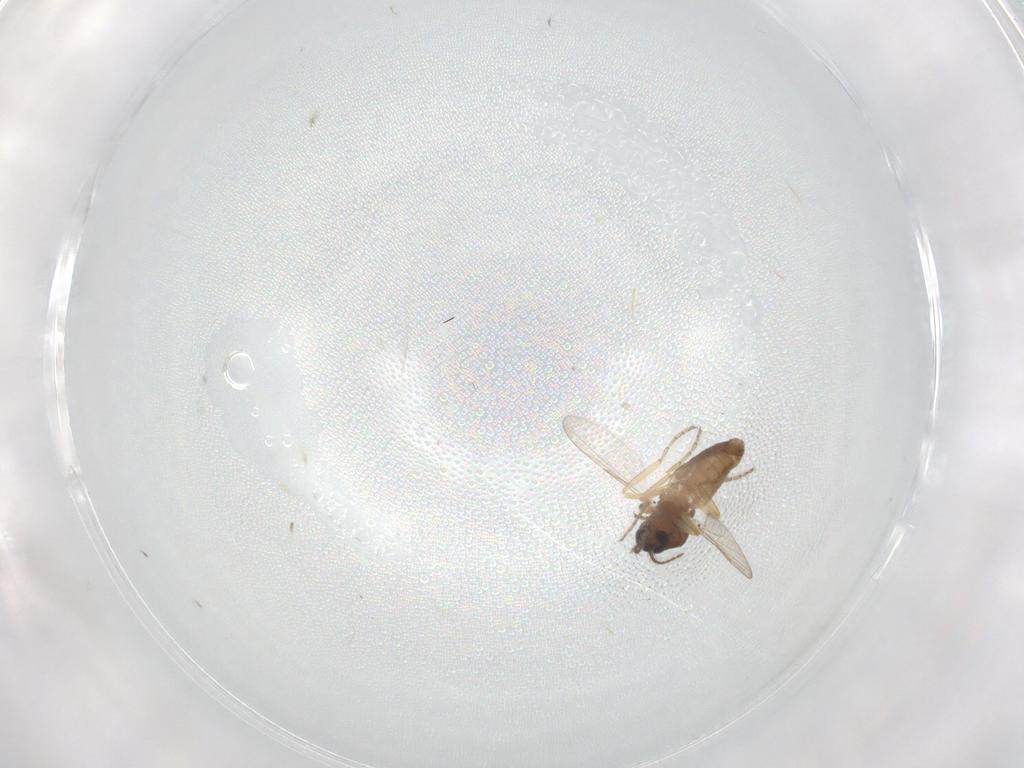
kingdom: Animalia
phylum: Arthropoda
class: Insecta
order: Diptera
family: Ceratopogonidae
